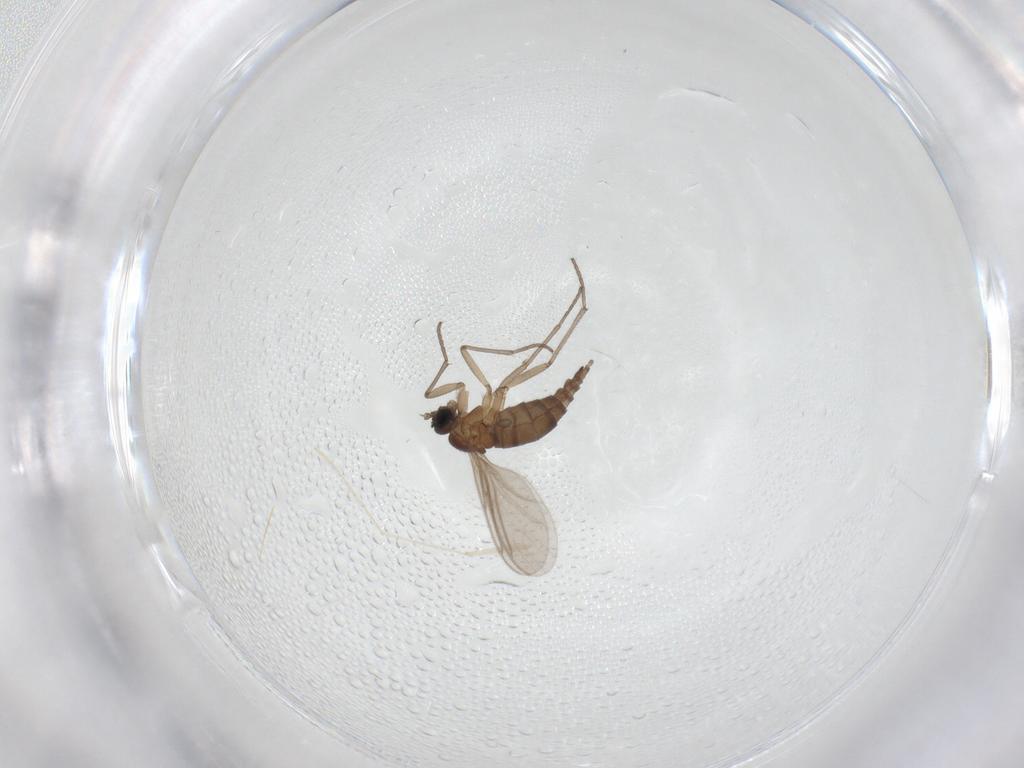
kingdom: Animalia
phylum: Arthropoda
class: Insecta
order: Diptera
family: Sciaridae
